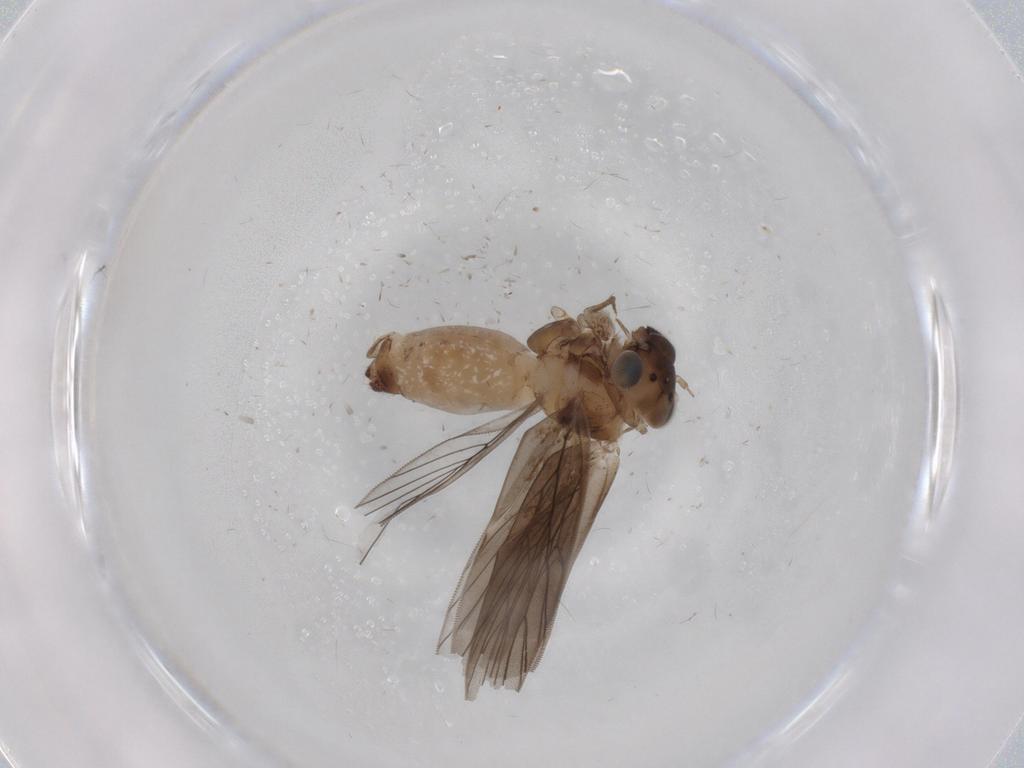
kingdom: Animalia
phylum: Arthropoda
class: Insecta
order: Psocodea
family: Lepidopsocidae
